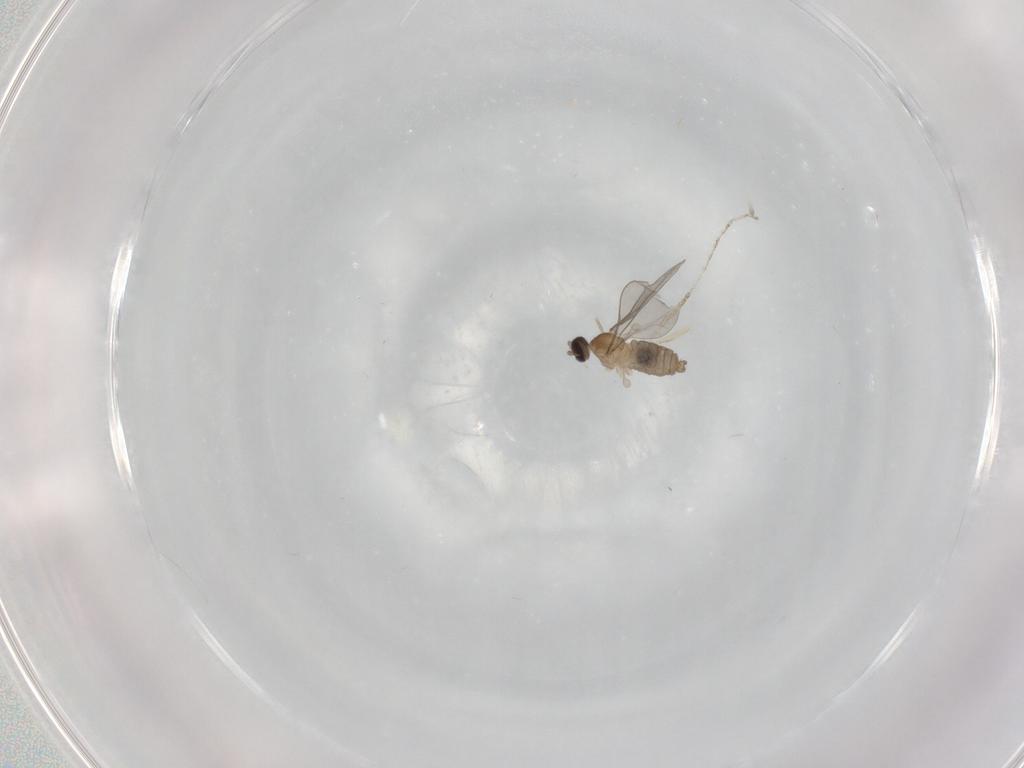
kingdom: Animalia
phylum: Arthropoda
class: Insecta
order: Diptera
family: Cecidomyiidae
